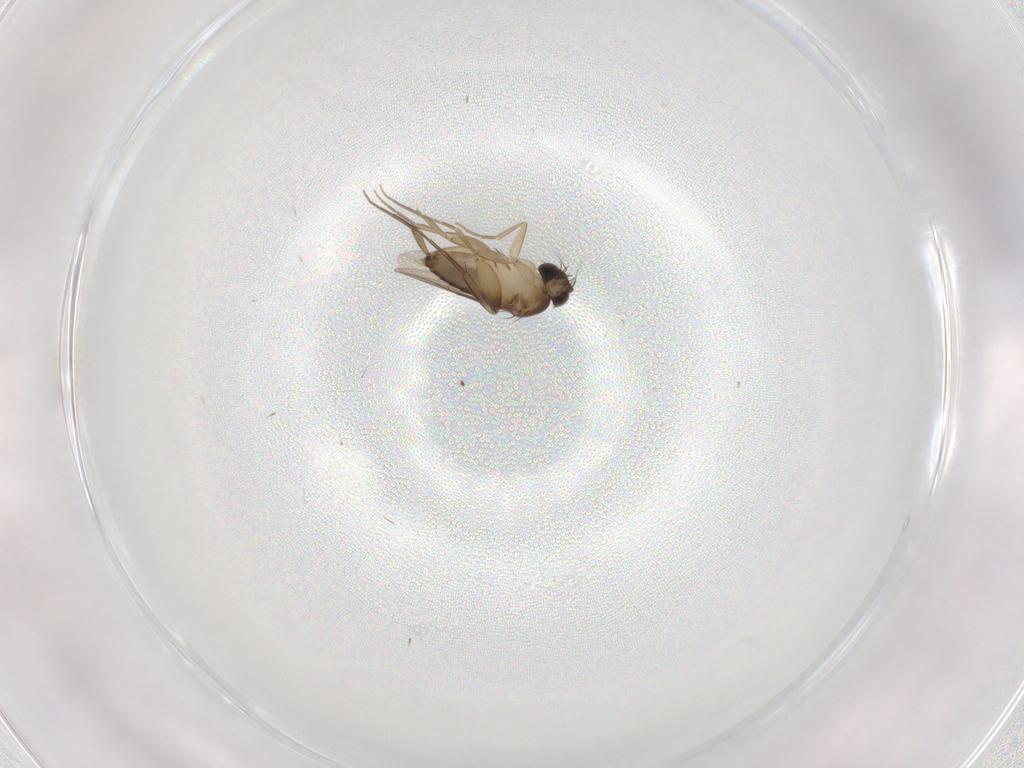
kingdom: Animalia
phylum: Arthropoda
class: Insecta
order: Diptera
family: Phoridae
